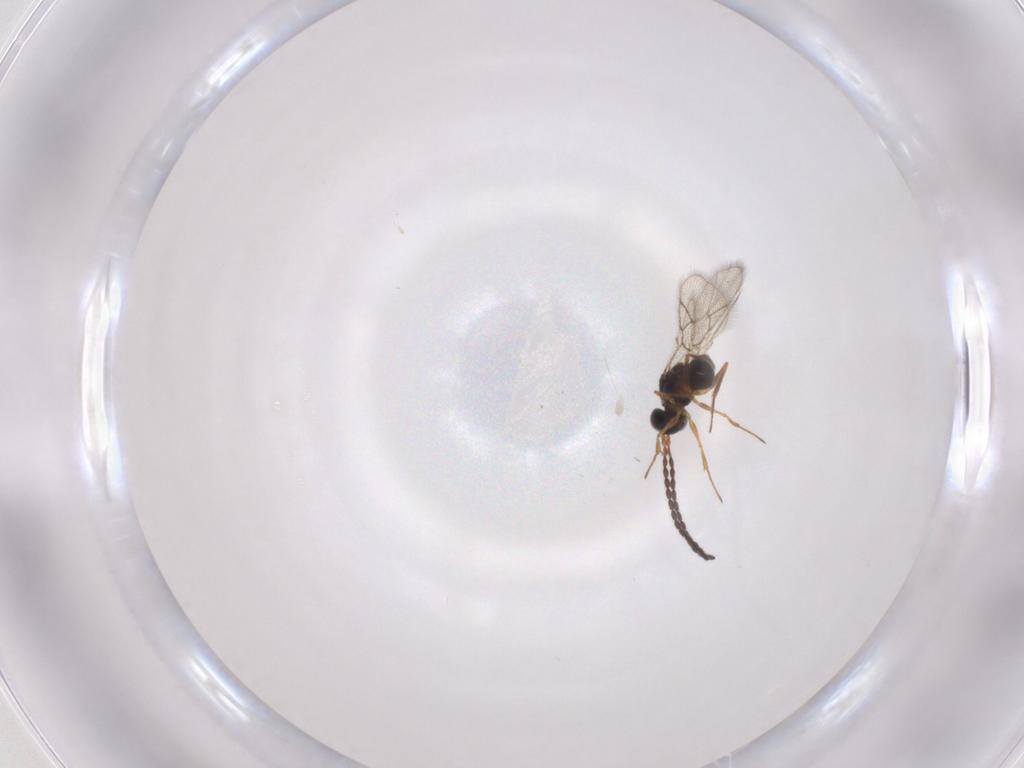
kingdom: Animalia
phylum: Arthropoda
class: Insecta
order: Hymenoptera
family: Figitidae
